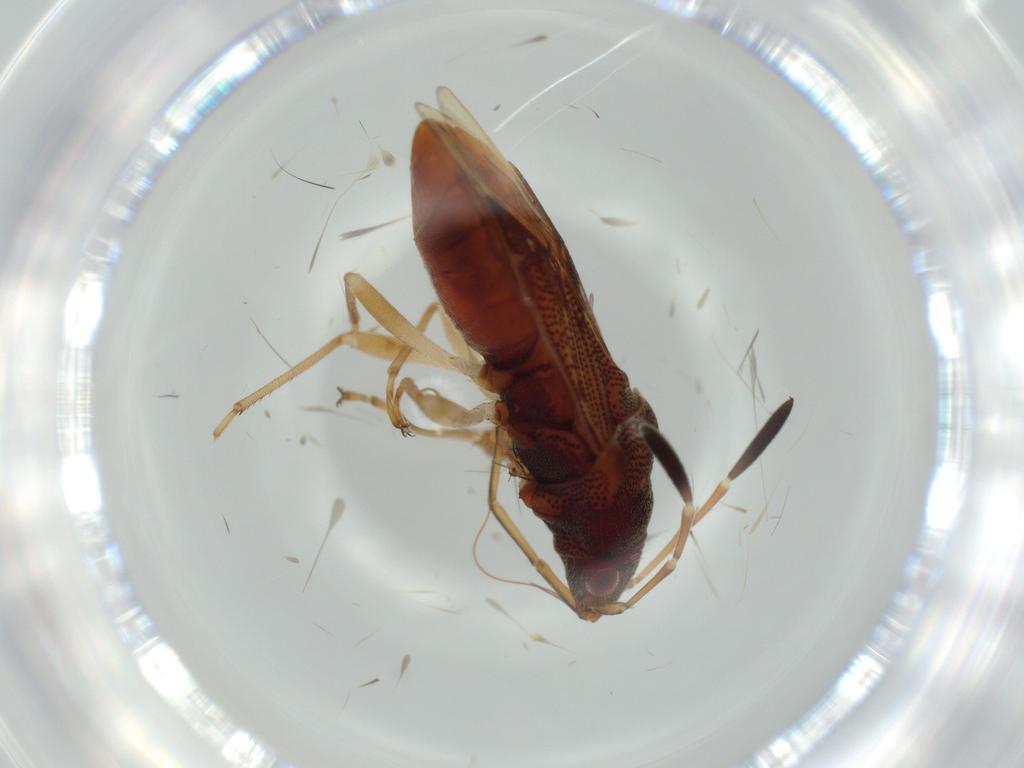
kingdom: Animalia
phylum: Arthropoda
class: Insecta
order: Hemiptera
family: Rhyparochromidae
